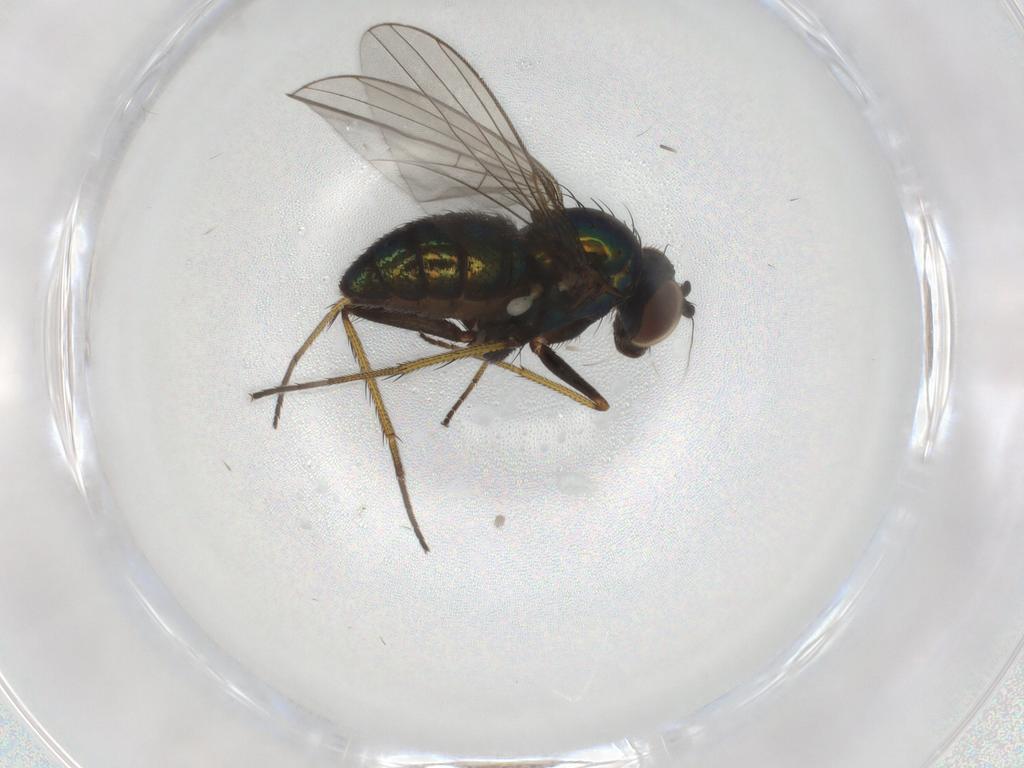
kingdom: Animalia
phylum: Arthropoda
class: Insecta
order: Diptera
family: Dolichopodidae
